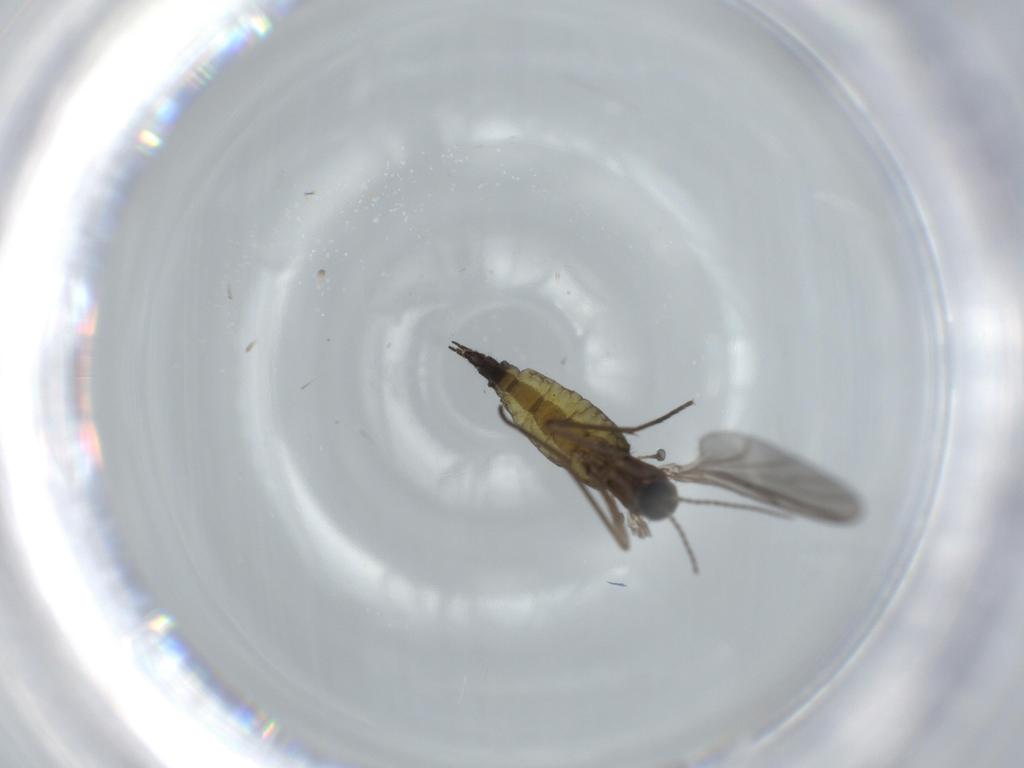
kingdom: Animalia
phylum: Arthropoda
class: Insecta
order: Diptera
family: Sciaridae
